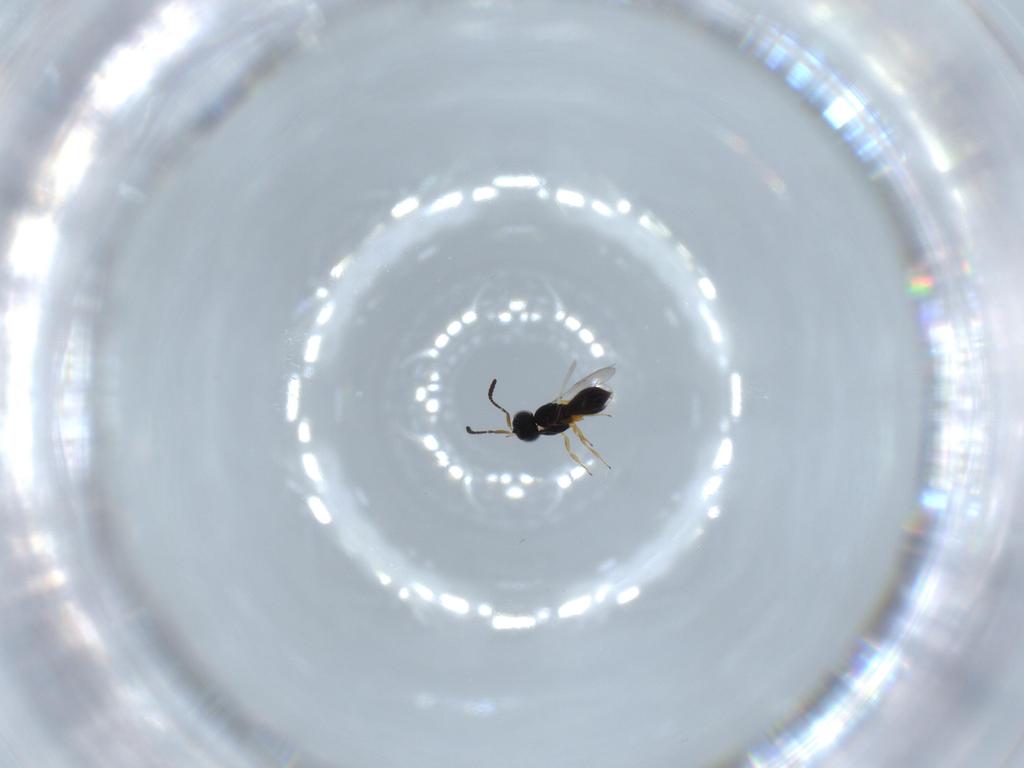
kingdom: Animalia
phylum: Arthropoda
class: Insecta
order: Hymenoptera
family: Scelionidae
